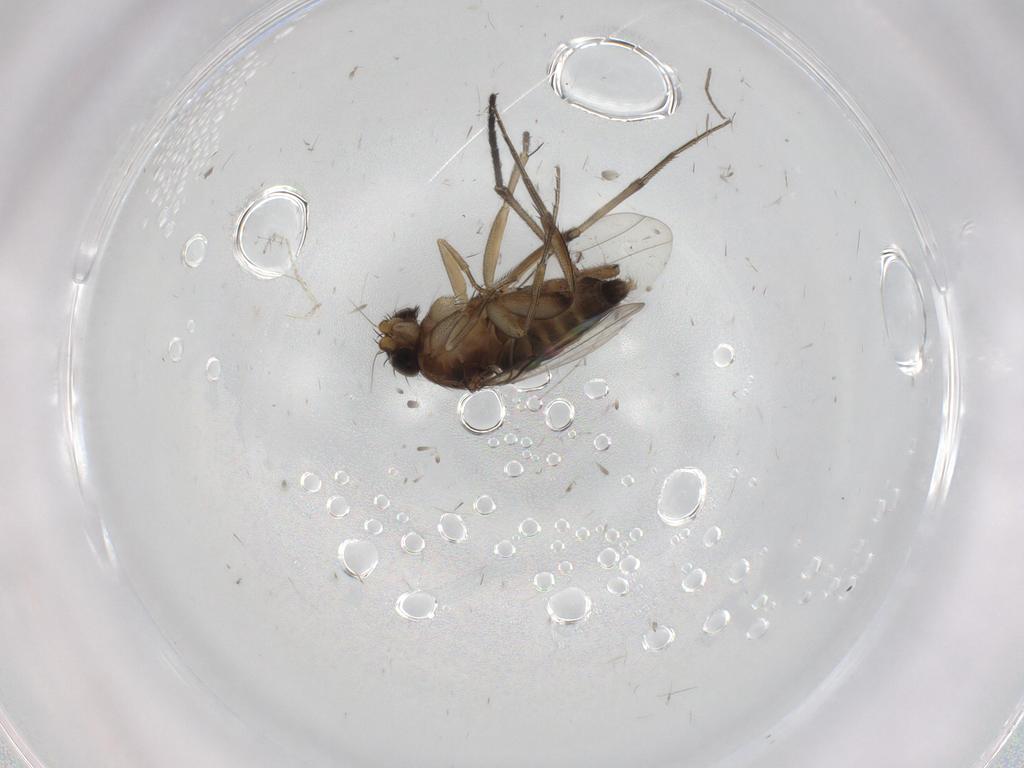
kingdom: Animalia
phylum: Arthropoda
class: Insecta
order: Diptera
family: Phoridae
